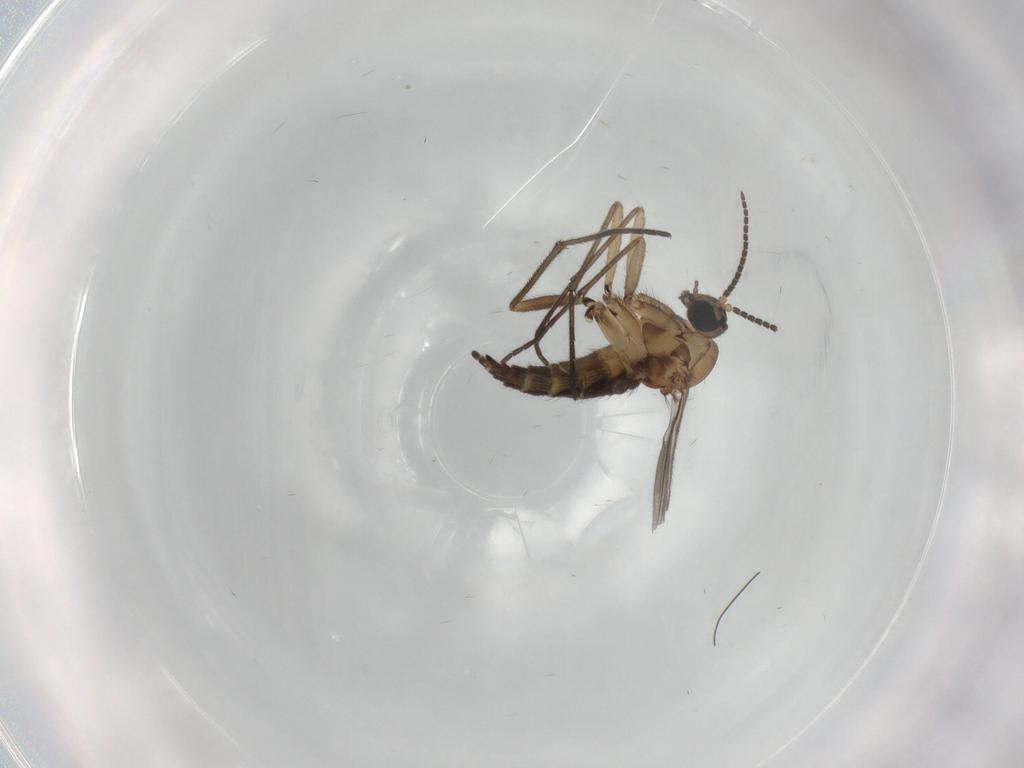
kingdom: Animalia
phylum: Arthropoda
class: Insecta
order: Diptera
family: Sciaridae
